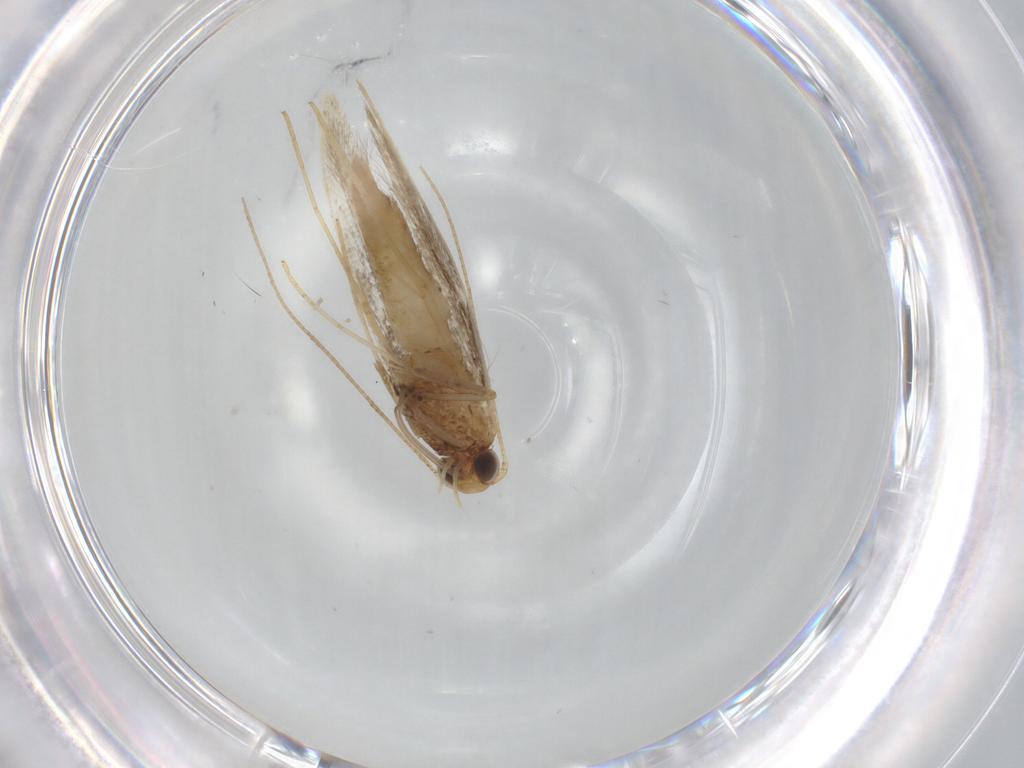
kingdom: Animalia
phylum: Arthropoda
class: Insecta
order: Lepidoptera
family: Gracillariidae
